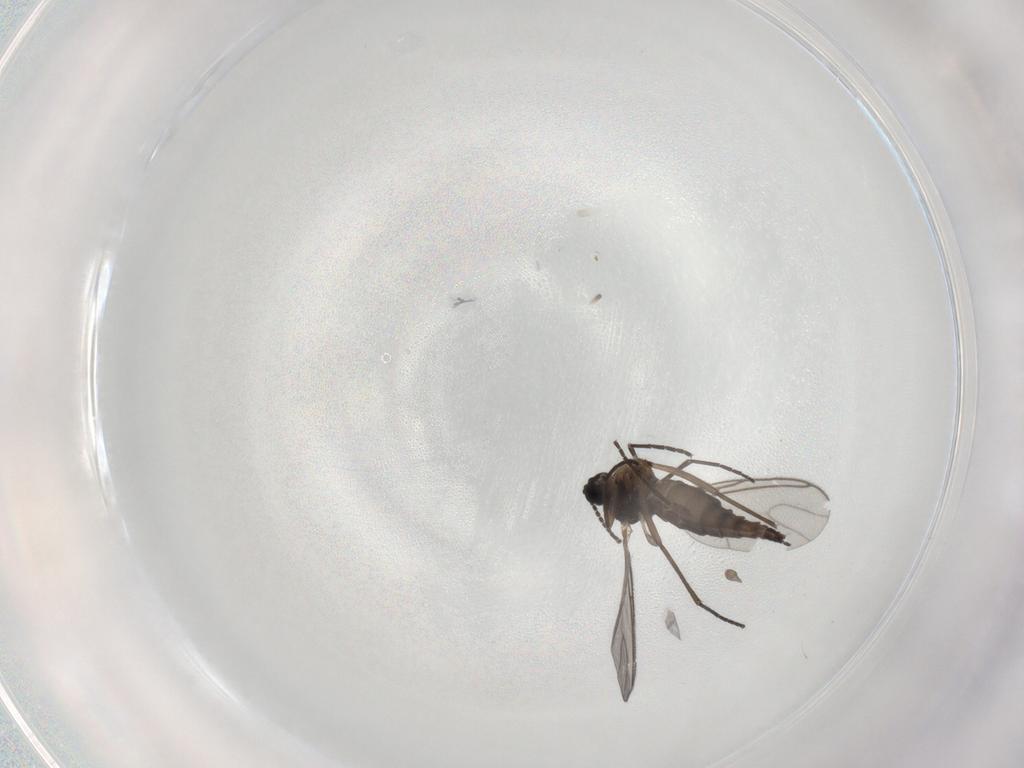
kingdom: Animalia
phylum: Arthropoda
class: Insecta
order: Diptera
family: Sciaridae
